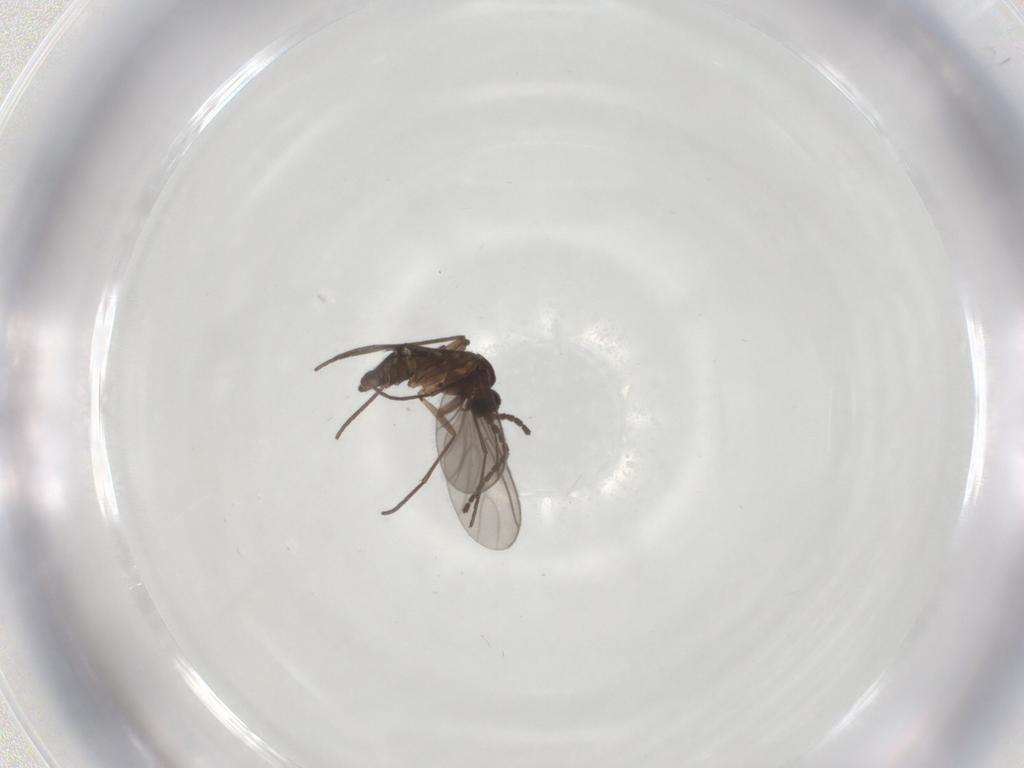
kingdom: Animalia
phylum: Arthropoda
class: Insecta
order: Diptera
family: Sciaridae
